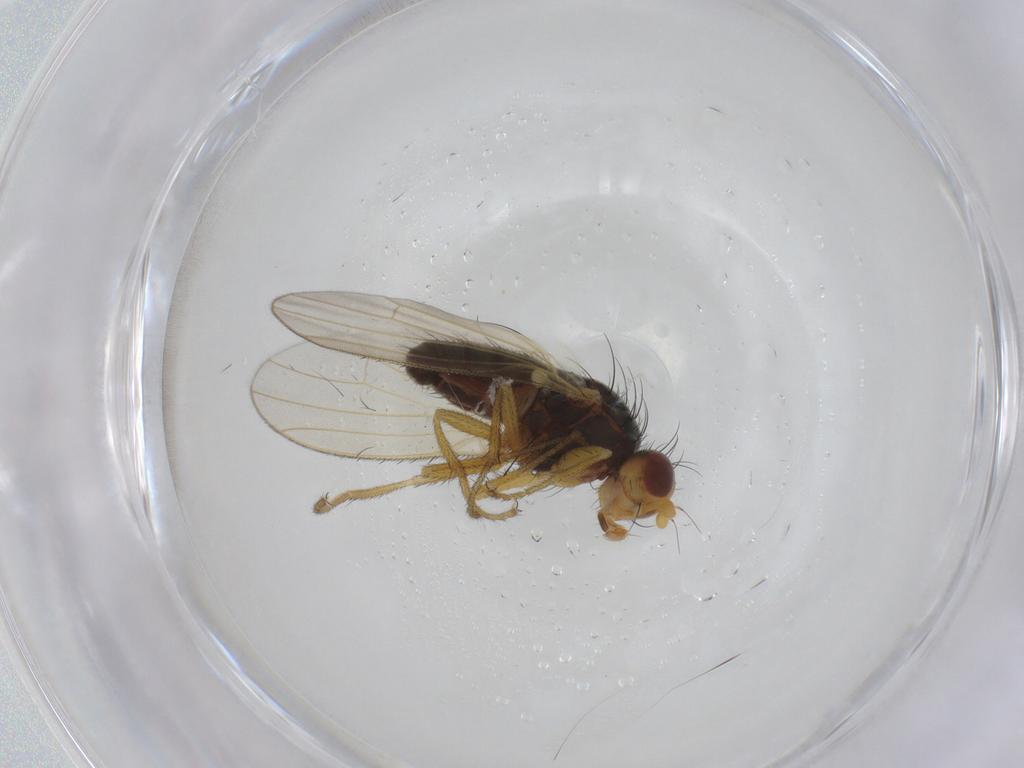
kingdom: Animalia
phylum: Arthropoda
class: Insecta
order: Diptera
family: Heleomyzidae
